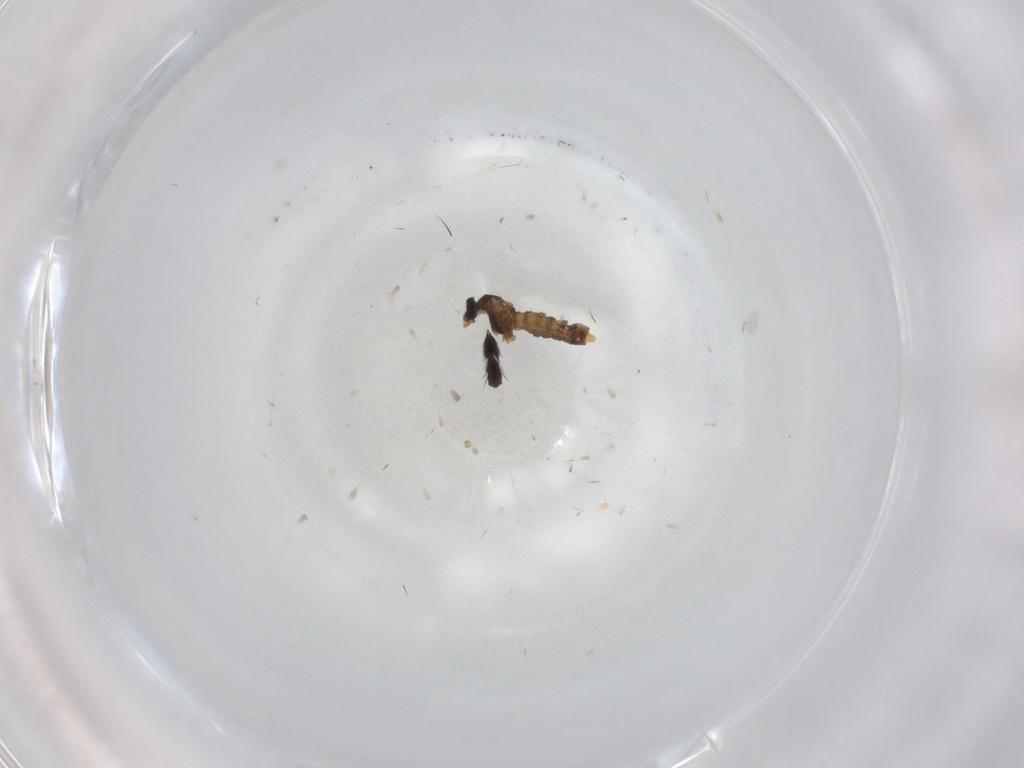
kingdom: Animalia
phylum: Arthropoda
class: Insecta
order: Diptera
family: Cecidomyiidae
